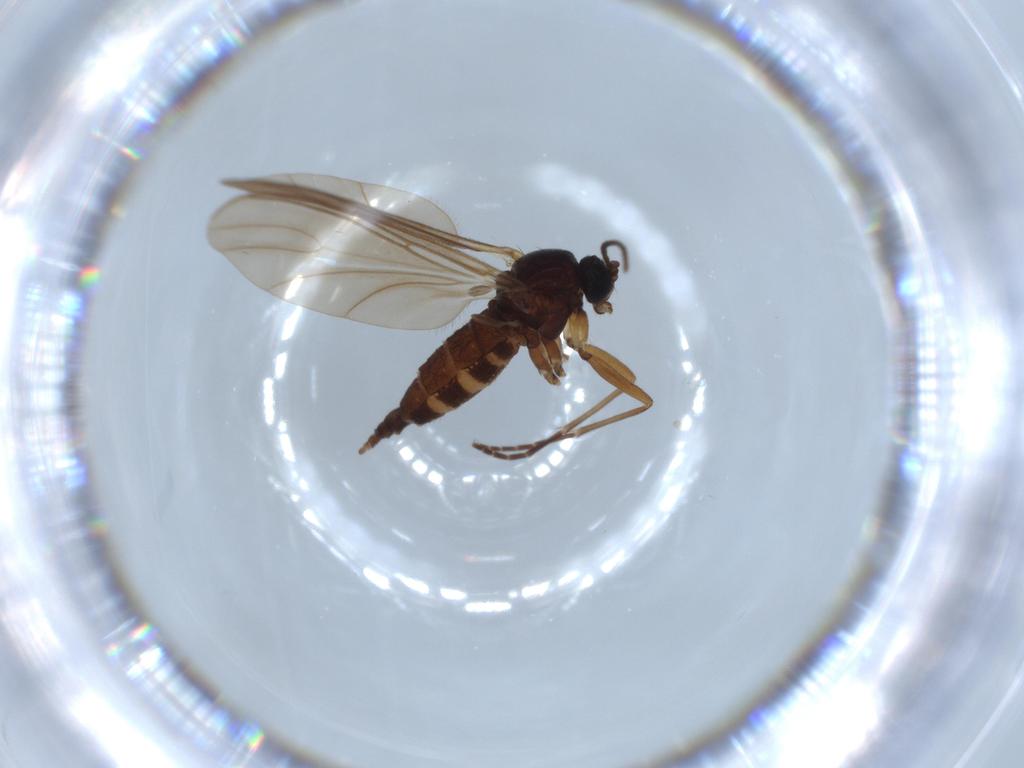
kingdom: Animalia
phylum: Arthropoda
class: Insecta
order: Diptera
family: Sciaridae
